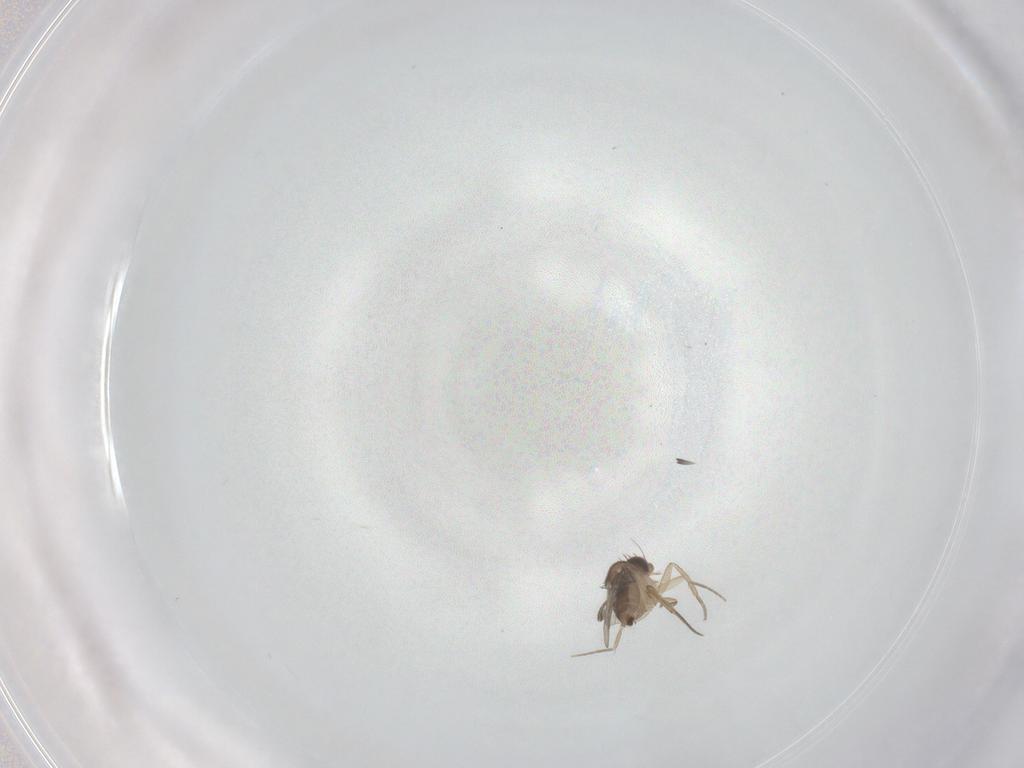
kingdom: Animalia
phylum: Arthropoda
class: Insecta
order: Diptera
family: Phoridae
